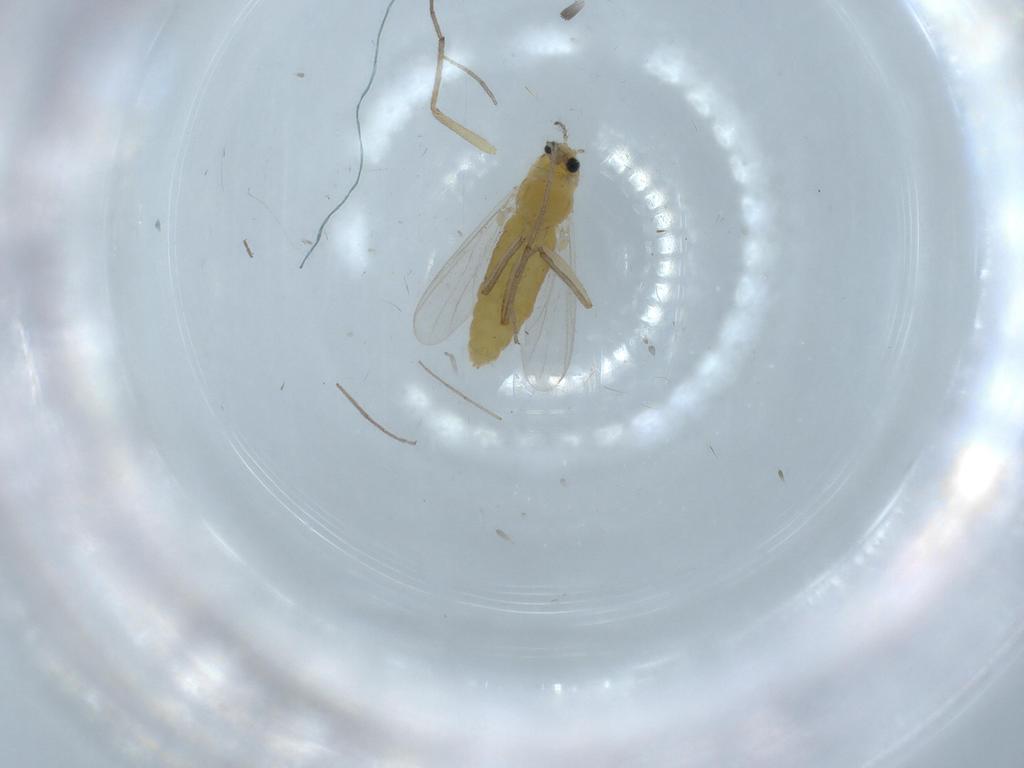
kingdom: Animalia
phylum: Arthropoda
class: Insecta
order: Diptera
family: Chironomidae
